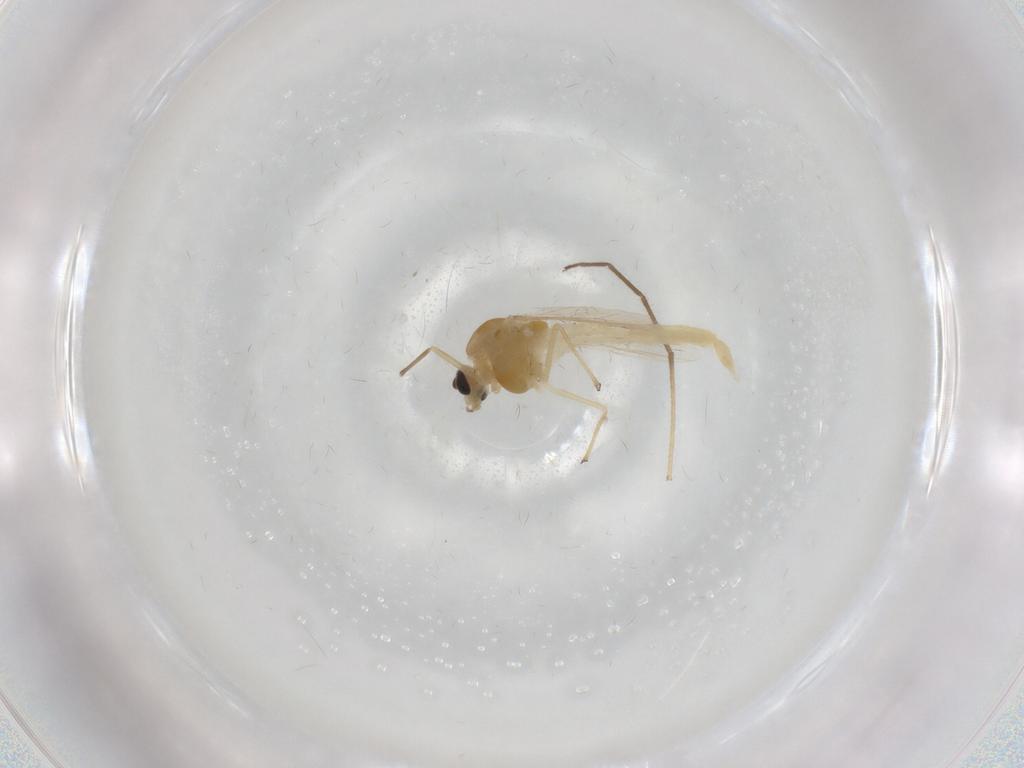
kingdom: Animalia
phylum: Arthropoda
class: Insecta
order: Diptera
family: Chironomidae
